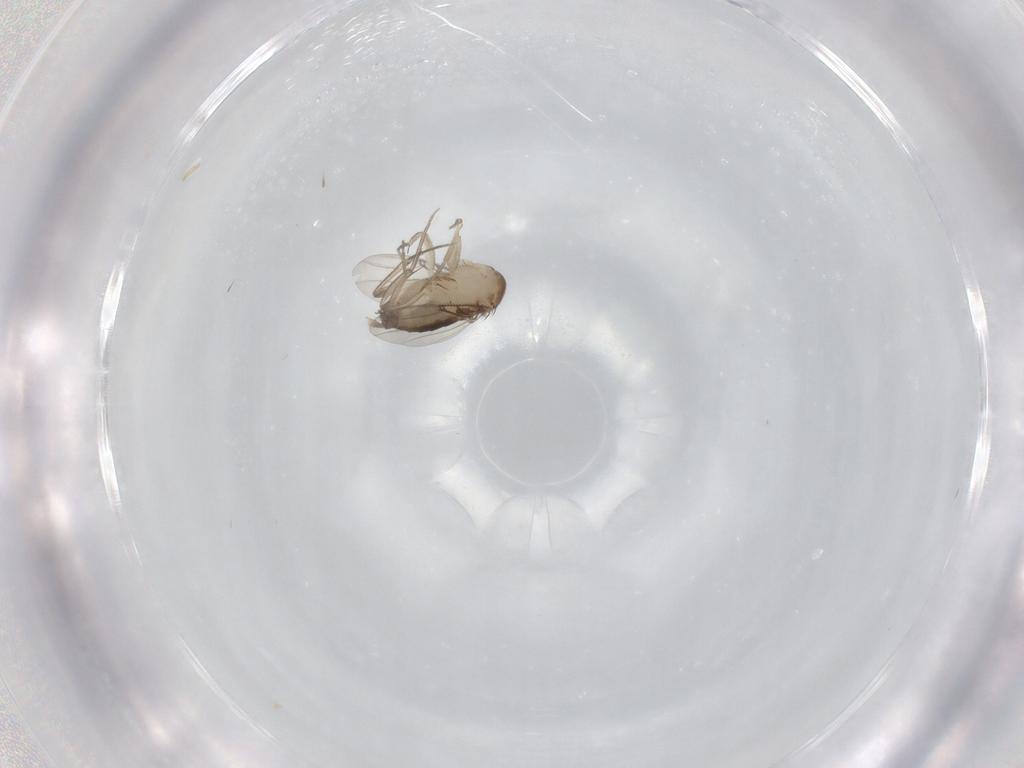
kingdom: Animalia
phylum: Arthropoda
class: Insecta
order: Diptera
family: Phoridae
